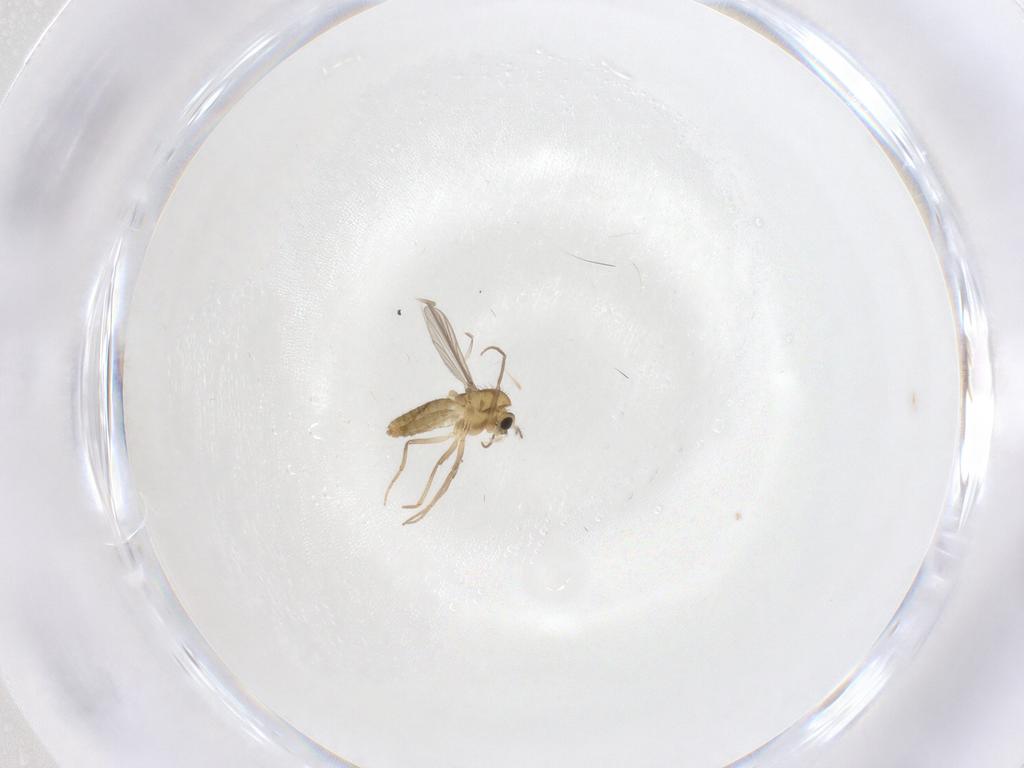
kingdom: Animalia
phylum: Arthropoda
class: Insecta
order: Diptera
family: Chironomidae
